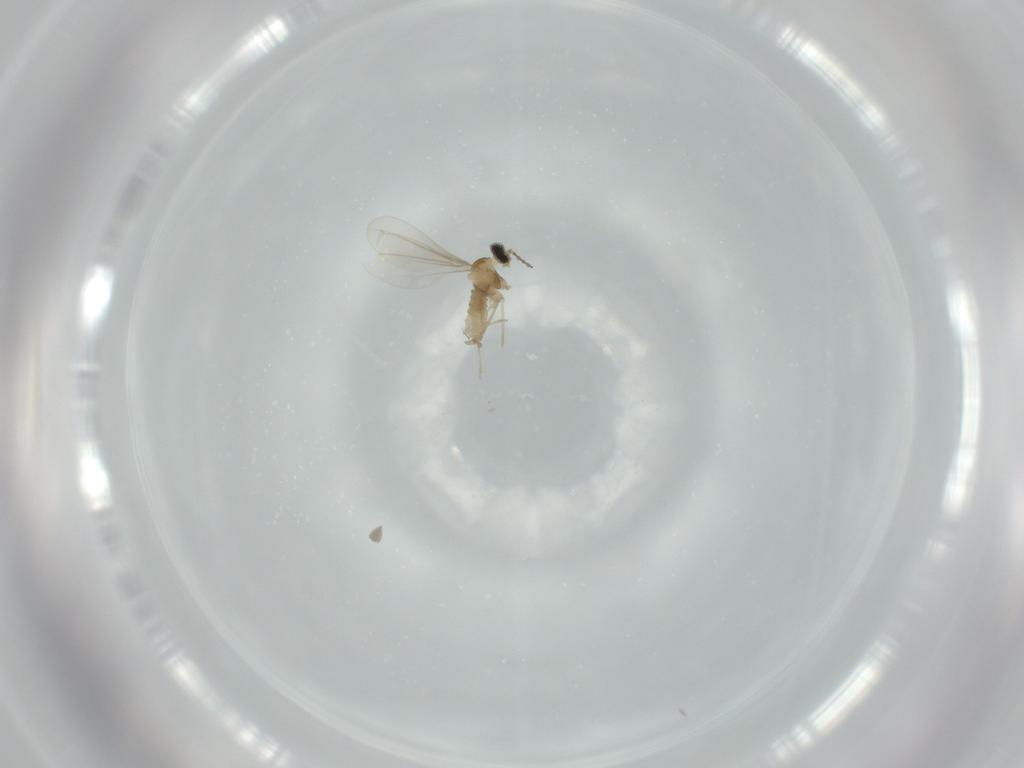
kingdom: Animalia
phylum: Arthropoda
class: Insecta
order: Diptera
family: Cecidomyiidae
